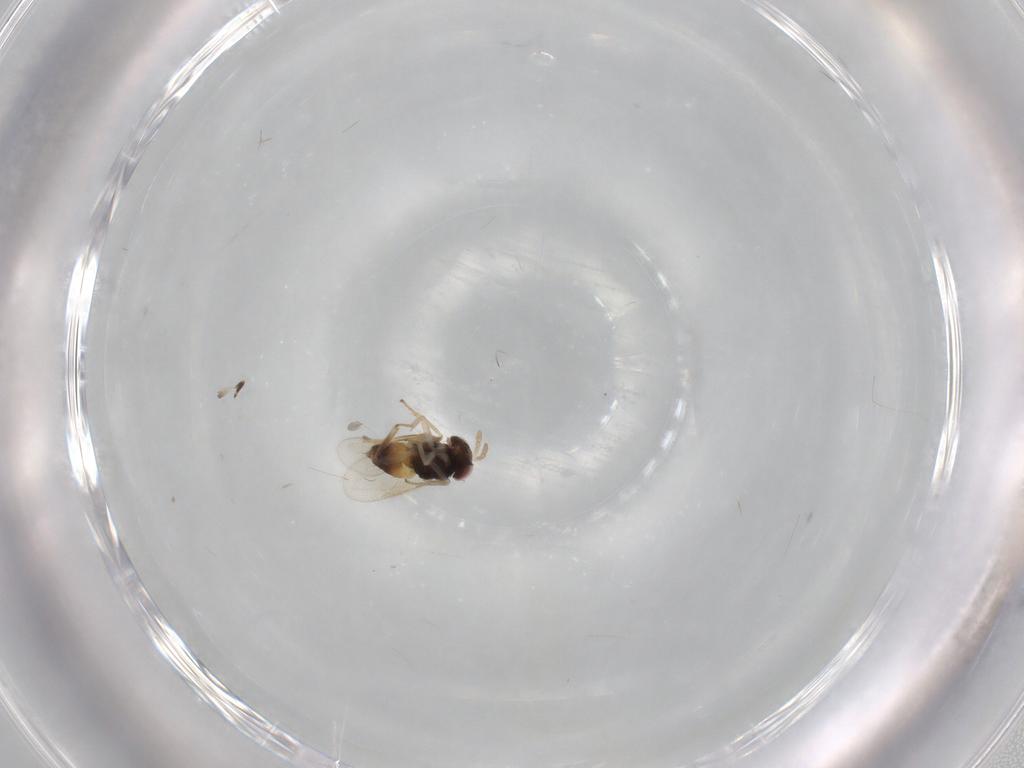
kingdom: Animalia
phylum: Arthropoda
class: Insecta
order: Hymenoptera
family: Aphelinidae
